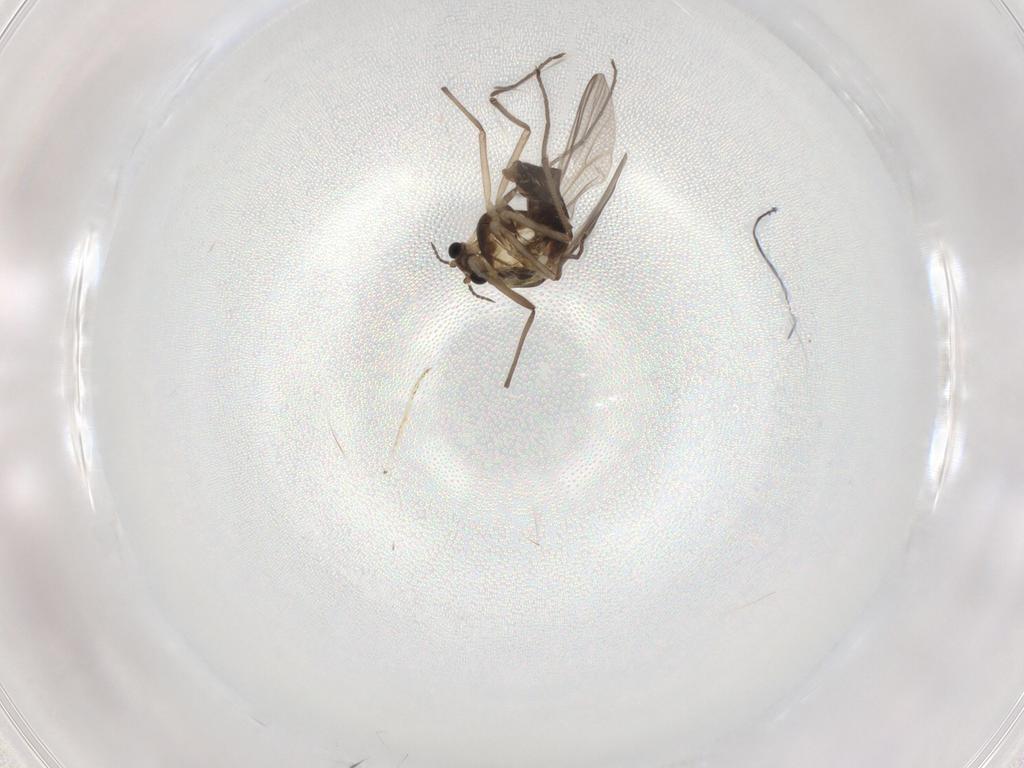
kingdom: Animalia
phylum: Arthropoda
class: Insecta
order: Diptera
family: Chironomidae
